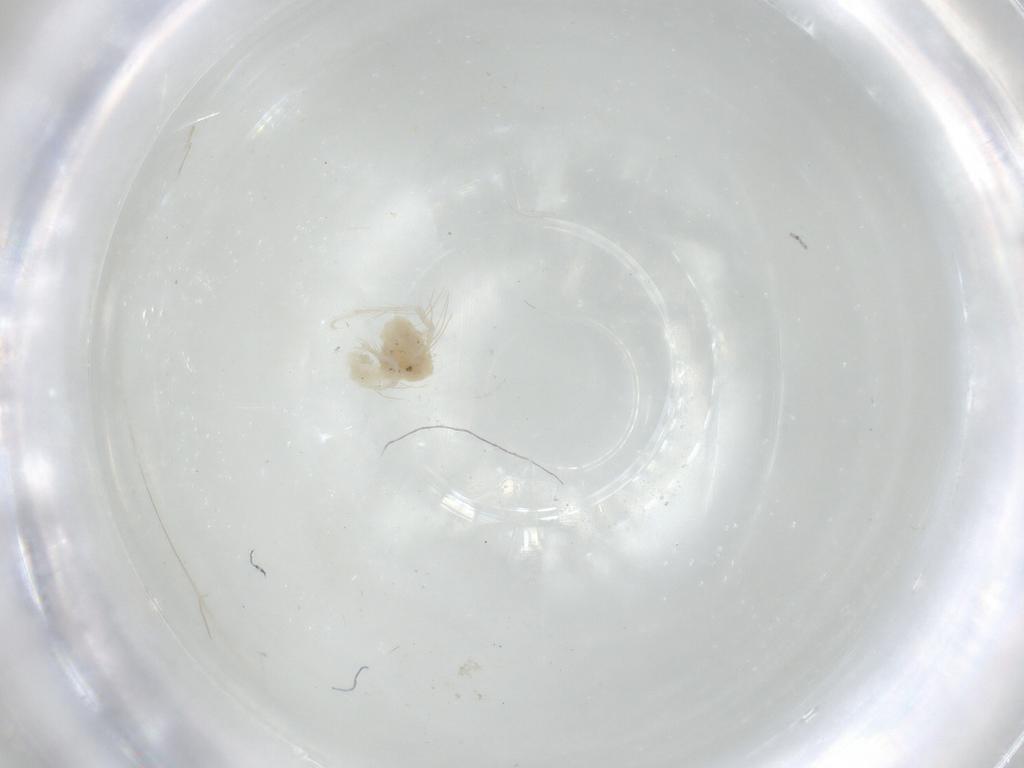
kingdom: Animalia
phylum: Arthropoda
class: Arachnida
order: Trombidiformes
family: Anystidae
